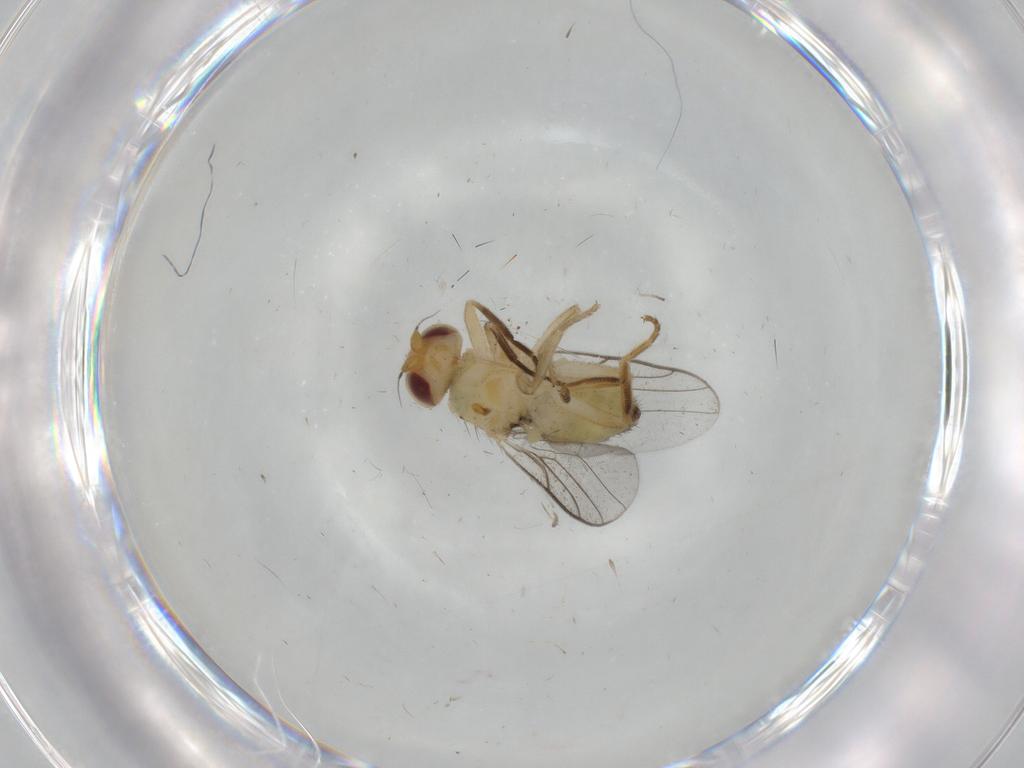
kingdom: Animalia
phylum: Arthropoda
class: Insecta
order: Diptera
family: Chloropidae
